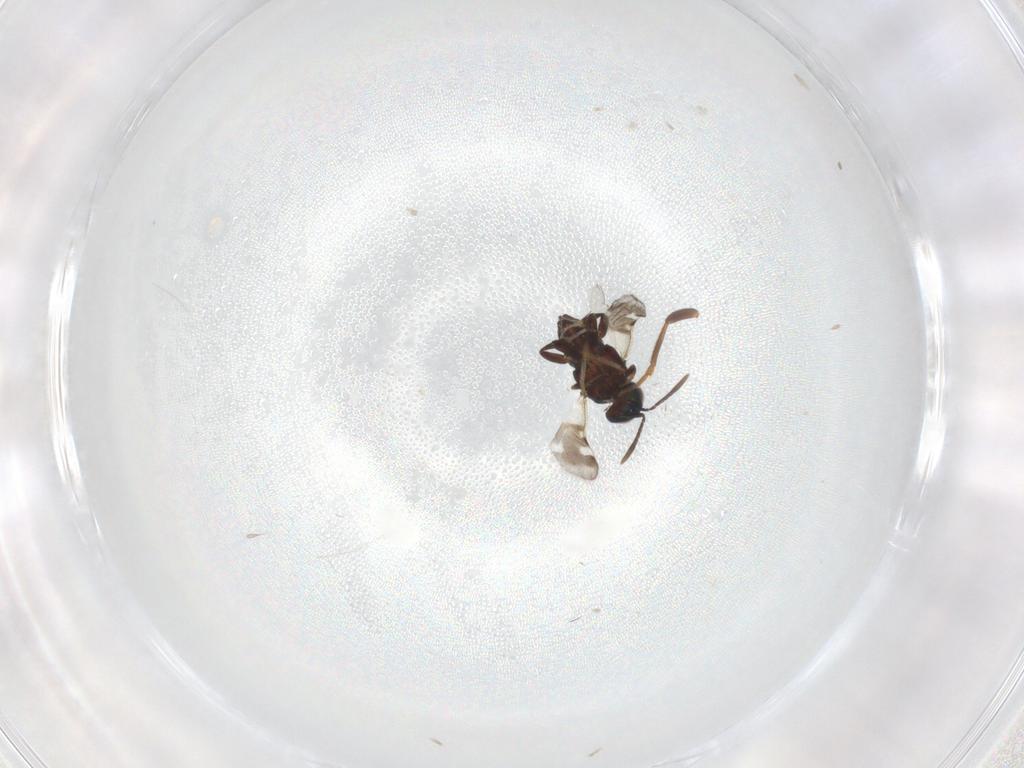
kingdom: Animalia
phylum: Arthropoda
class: Insecta
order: Hymenoptera
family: Encyrtidae
